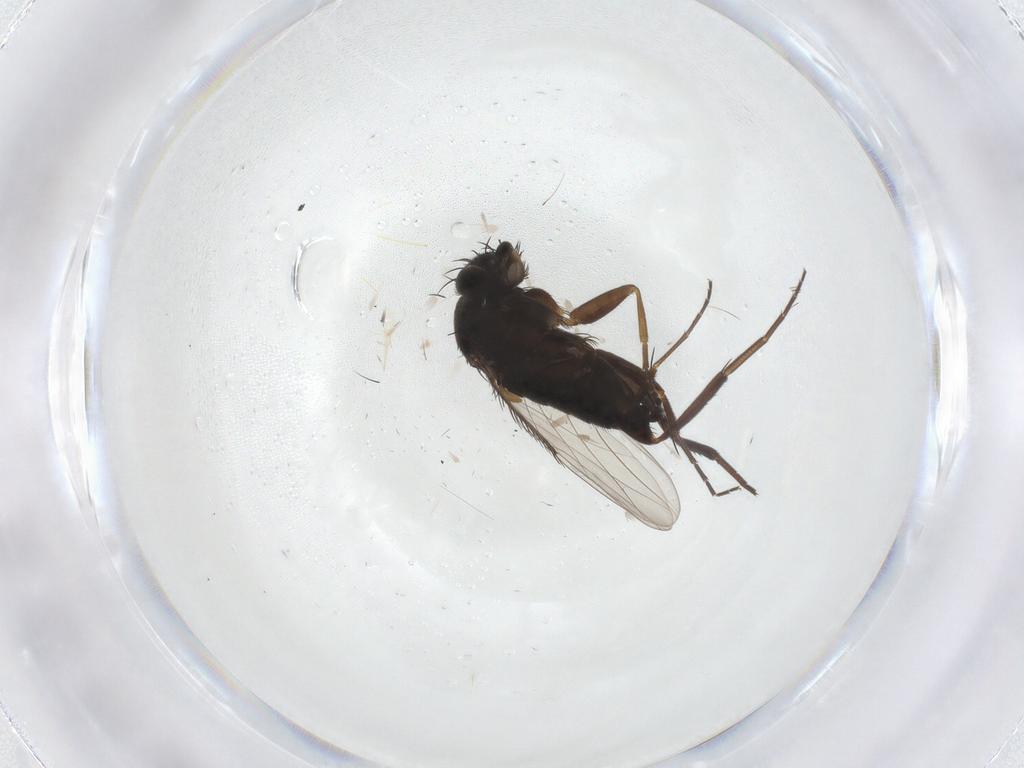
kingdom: Animalia
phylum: Arthropoda
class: Insecta
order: Diptera
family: Phoridae
